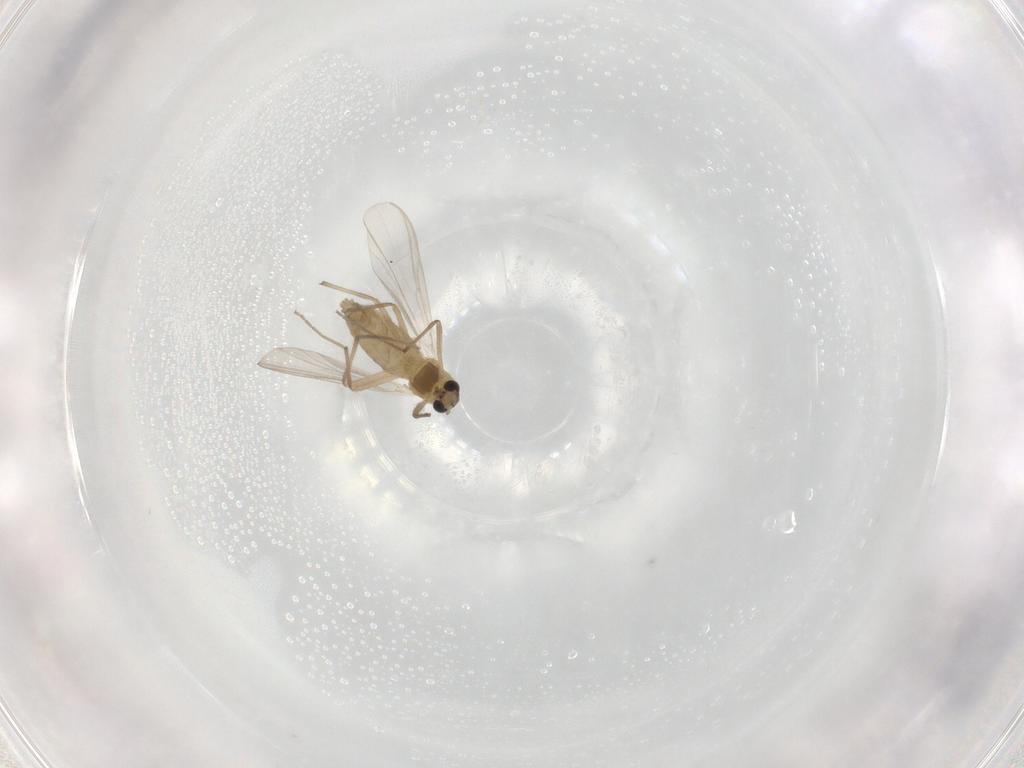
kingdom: Animalia
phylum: Arthropoda
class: Insecta
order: Diptera
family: Chironomidae
